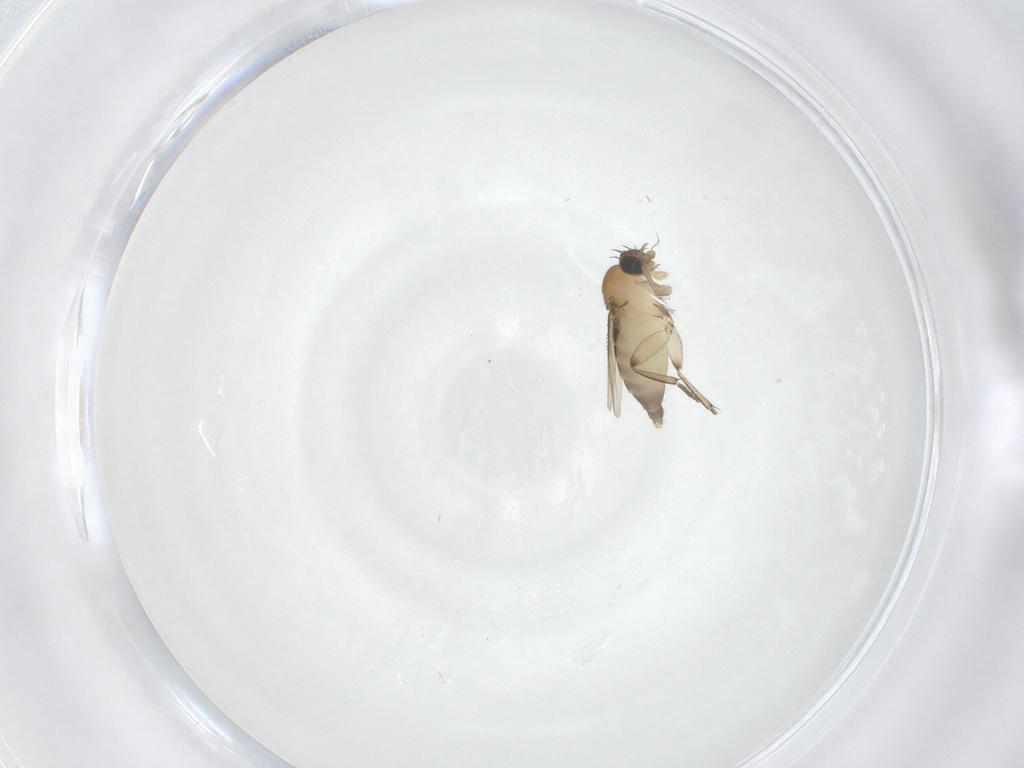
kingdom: Animalia
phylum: Arthropoda
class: Insecta
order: Diptera
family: Phoridae
